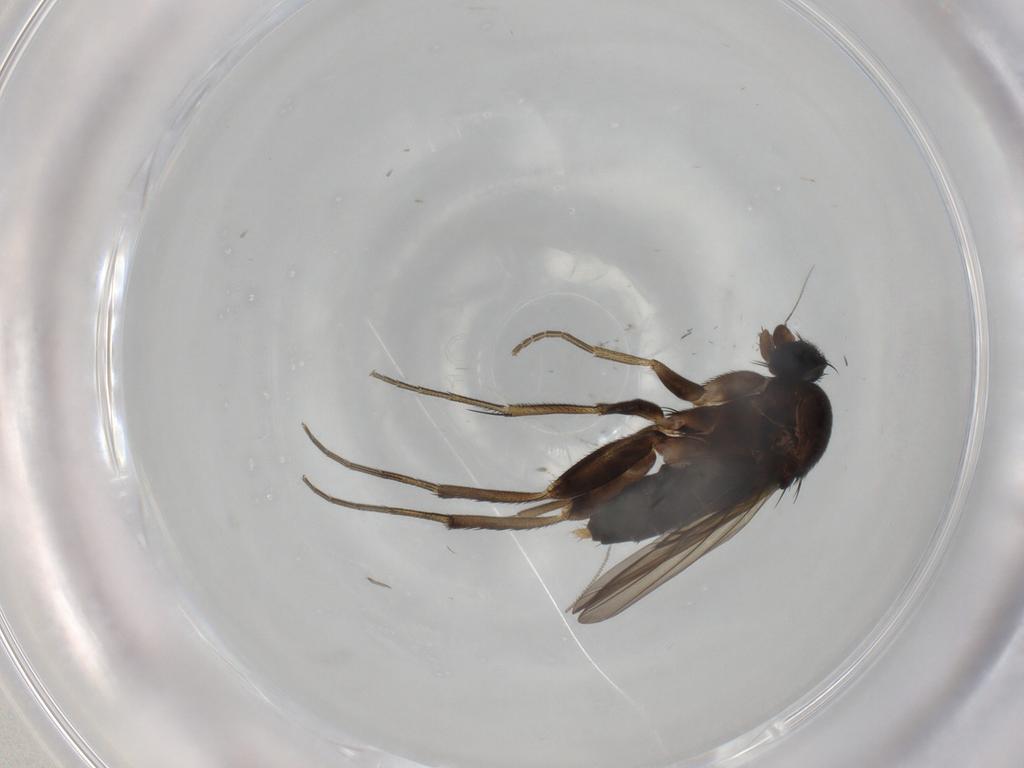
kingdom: Animalia
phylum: Arthropoda
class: Insecta
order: Diptera
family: Phoridae
